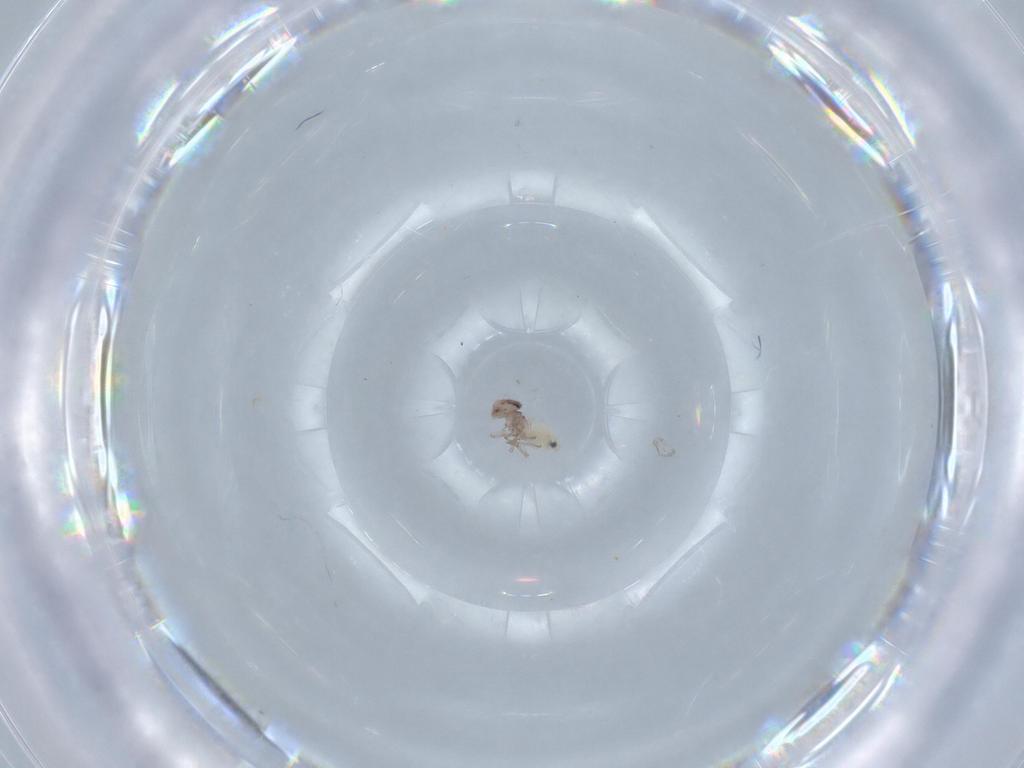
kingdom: Animalia
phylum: Arthropoda
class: Insecta
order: Psocodea
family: Lepidopsocidae
